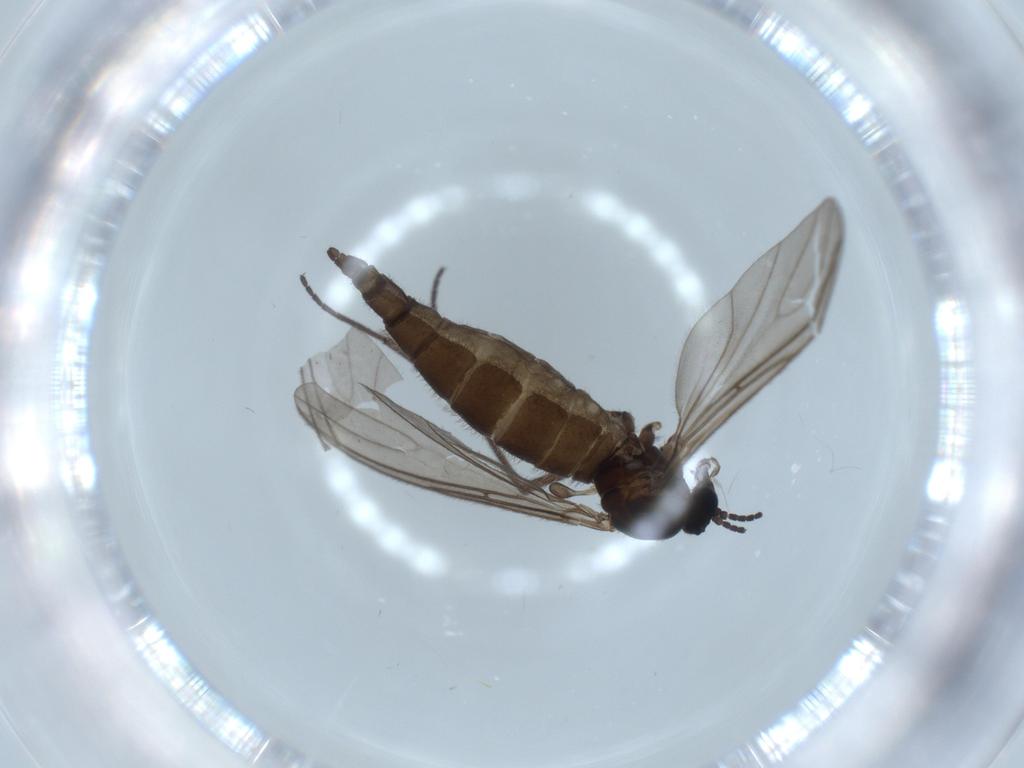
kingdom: Animalia
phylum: Arthropoda
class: Insecta
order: Diptera
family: Sciaridae
